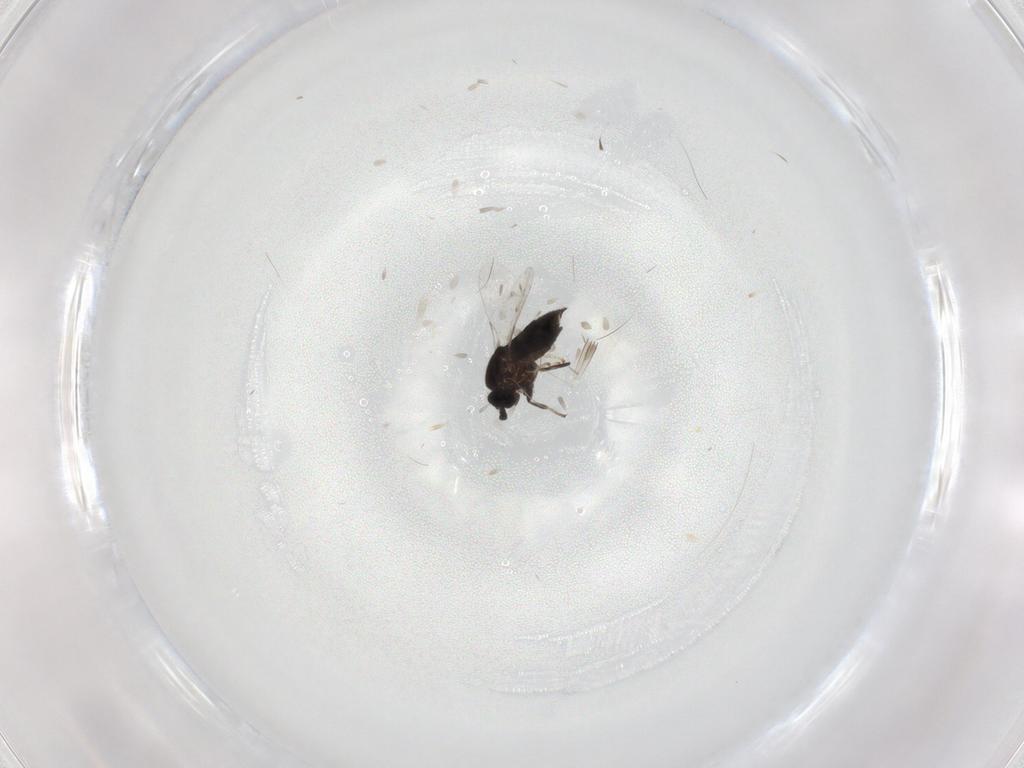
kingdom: Animalia
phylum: Arthropoda
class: Insecta
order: Diptera
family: Scatopsidae
